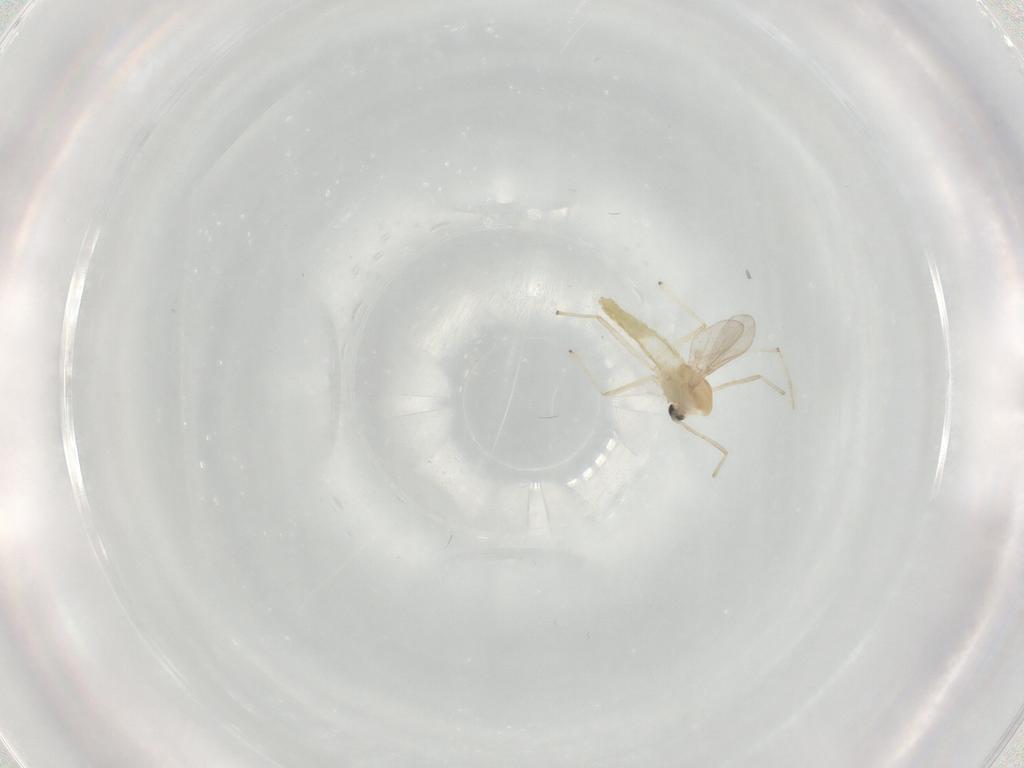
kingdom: Animalia
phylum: Arthropoda
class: Insecta
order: Diptera
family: Chironomidae
